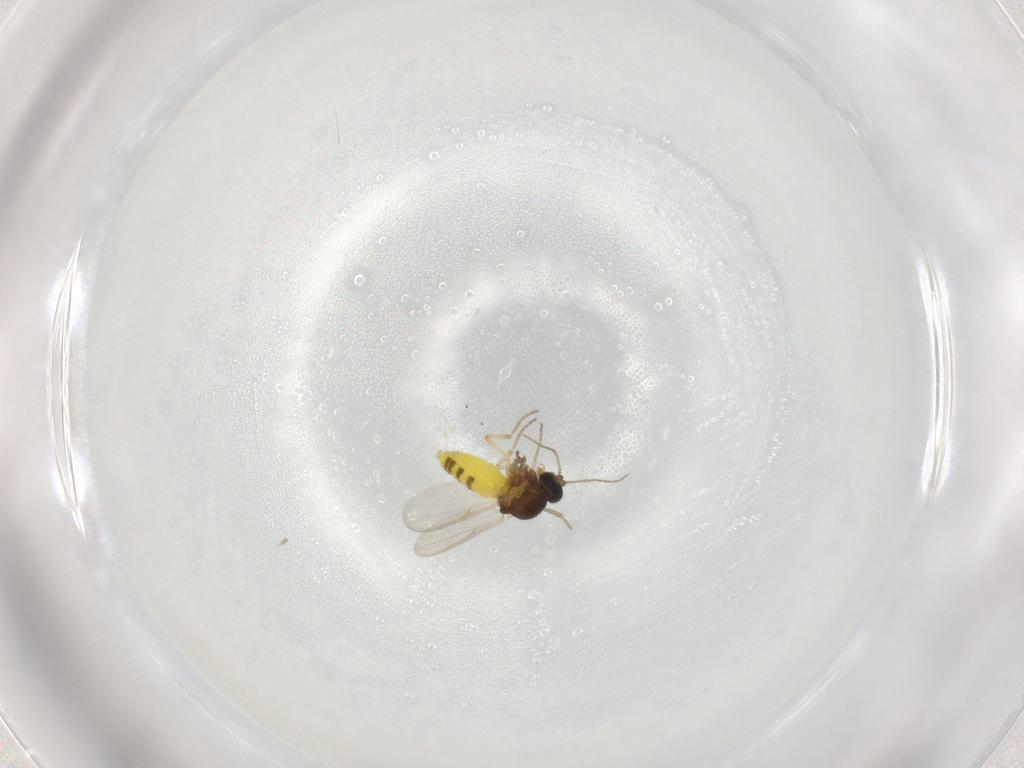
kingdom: Animalia
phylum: Arthropoda
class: Insecta
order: Diptera
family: Ceratopogonidae
